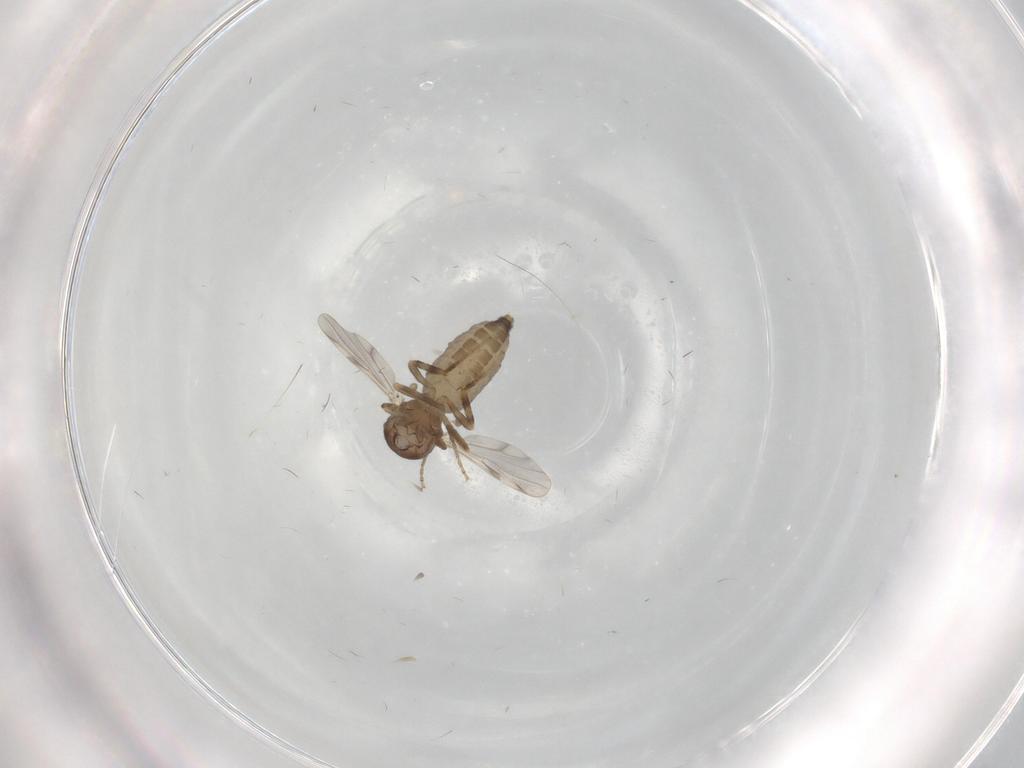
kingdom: Animalia
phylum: Arthropoda
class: Insecta
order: Diptera
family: Ceratopogonidae
